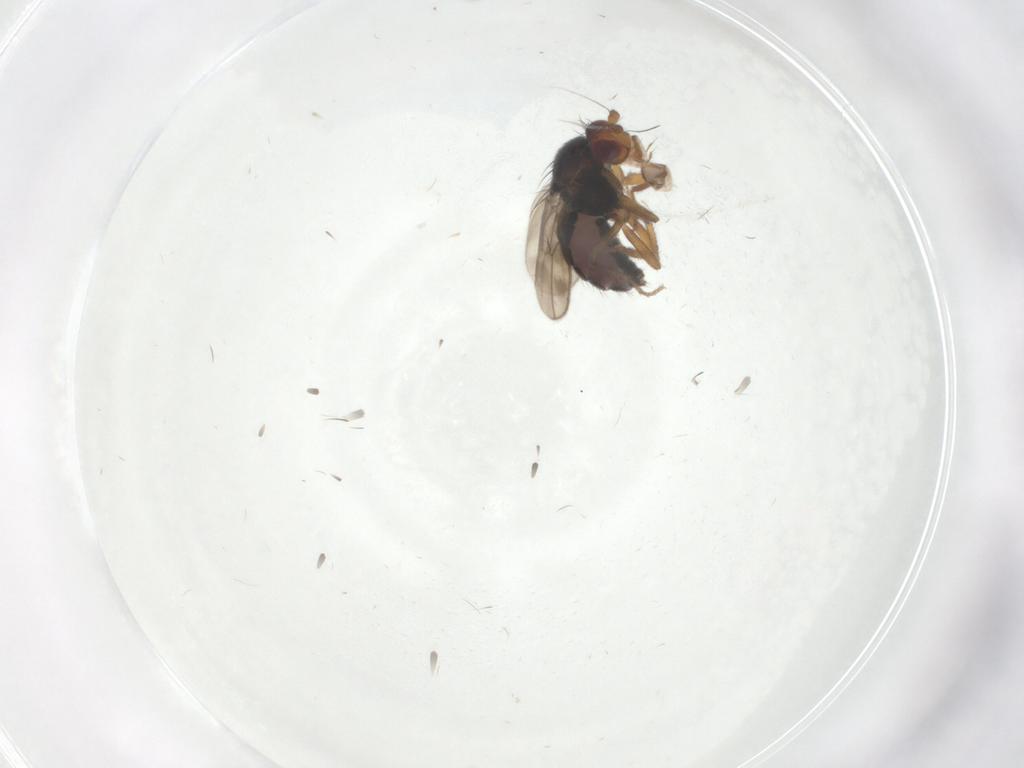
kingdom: Animalia
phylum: Arthropoda
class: Insecta
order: Diptera
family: Sphaeroceridae
